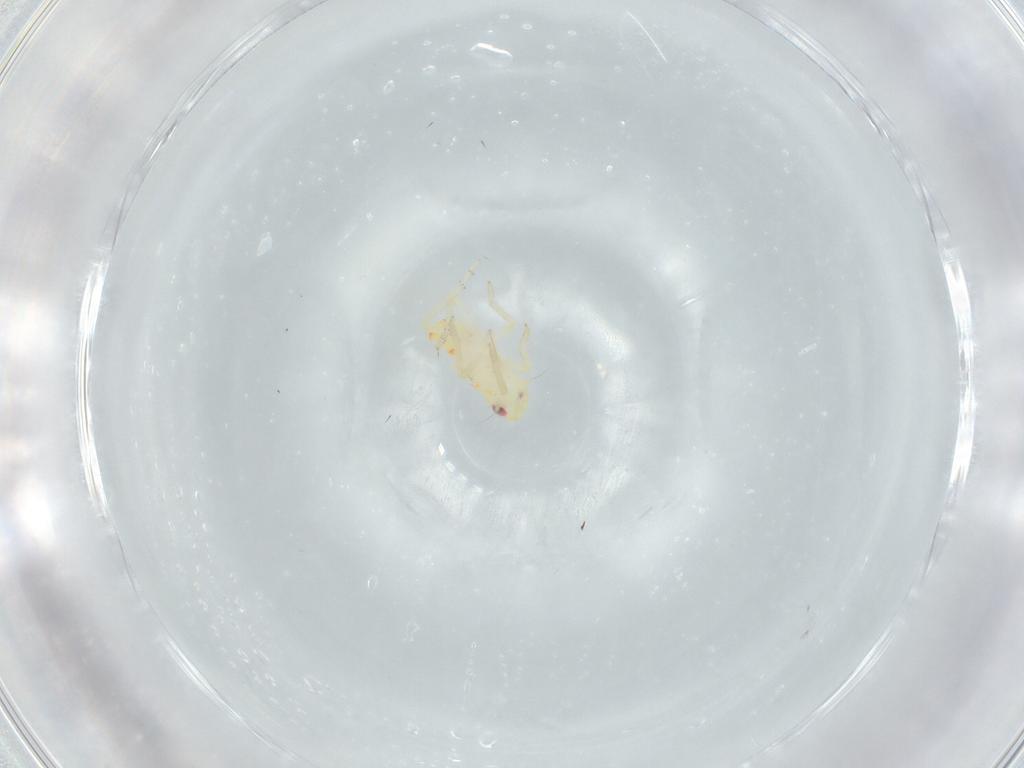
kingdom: Animalia
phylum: Arthropoda
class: Insecta
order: Hemiptera
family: Tropiduchidae
